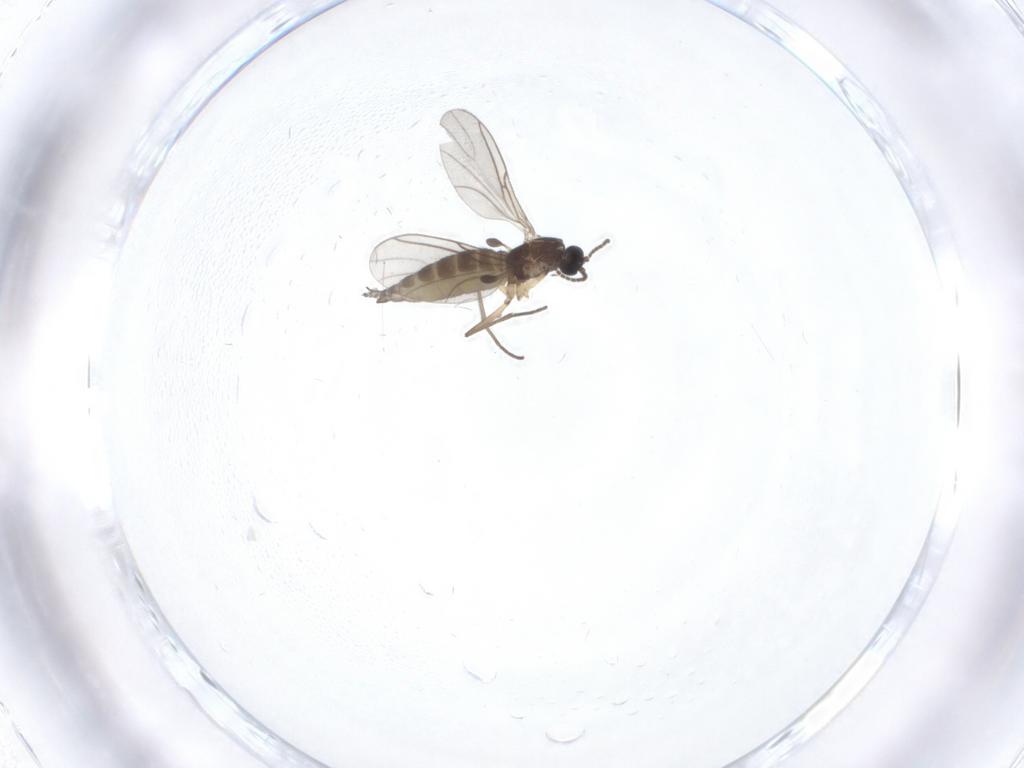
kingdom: Animalia
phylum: Arthropoda
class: Insecta
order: Diptera
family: Sciaridae
